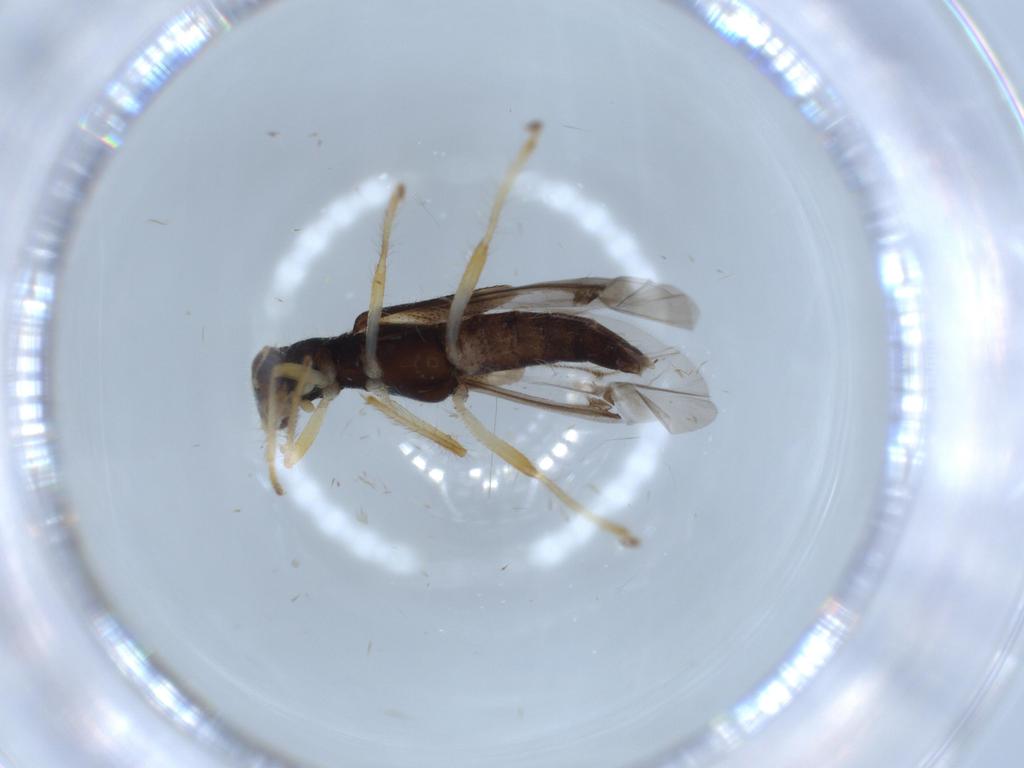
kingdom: Animalia
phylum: Arthropoda
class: Insecta
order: Coleoptera
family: Cleridae
